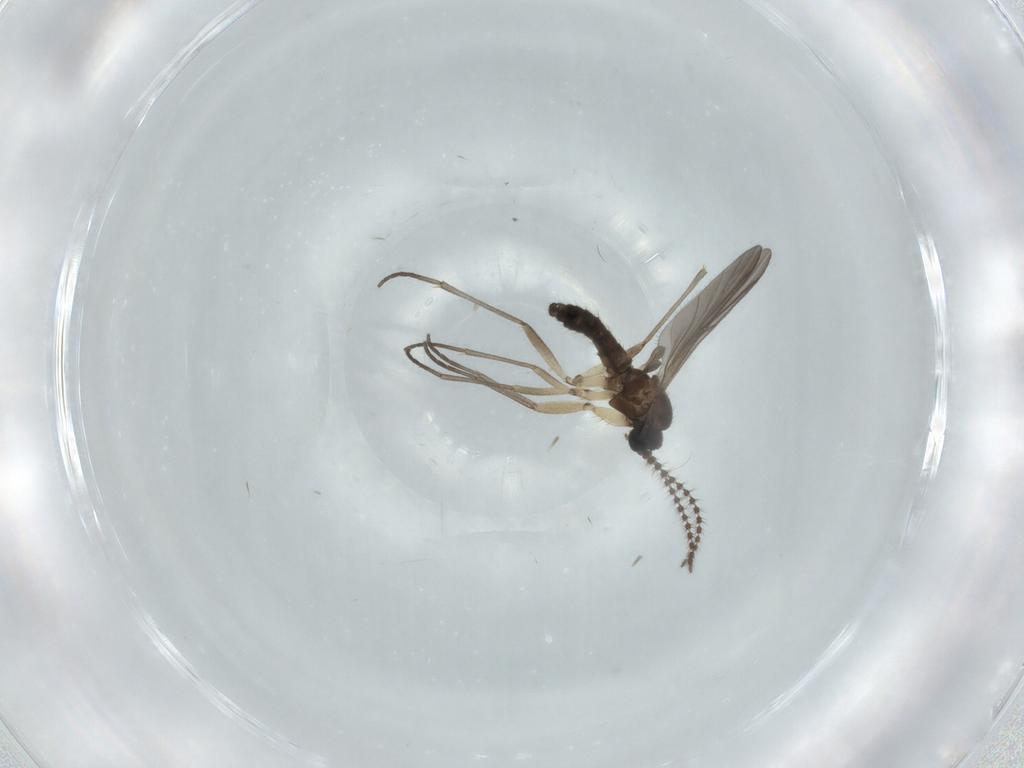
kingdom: Animalia
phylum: Arthropoda
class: Insecta
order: Diptera
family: Sciaridae
